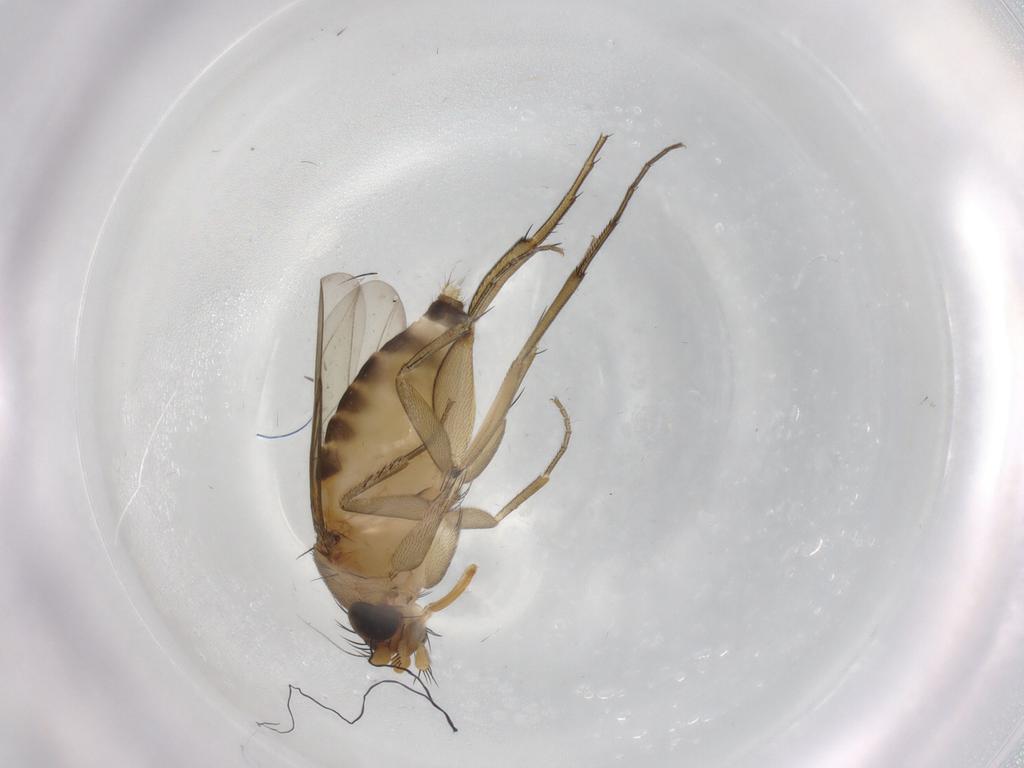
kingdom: Animalia
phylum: Arthropoda
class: Insecta
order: Diptera
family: Phoridae
